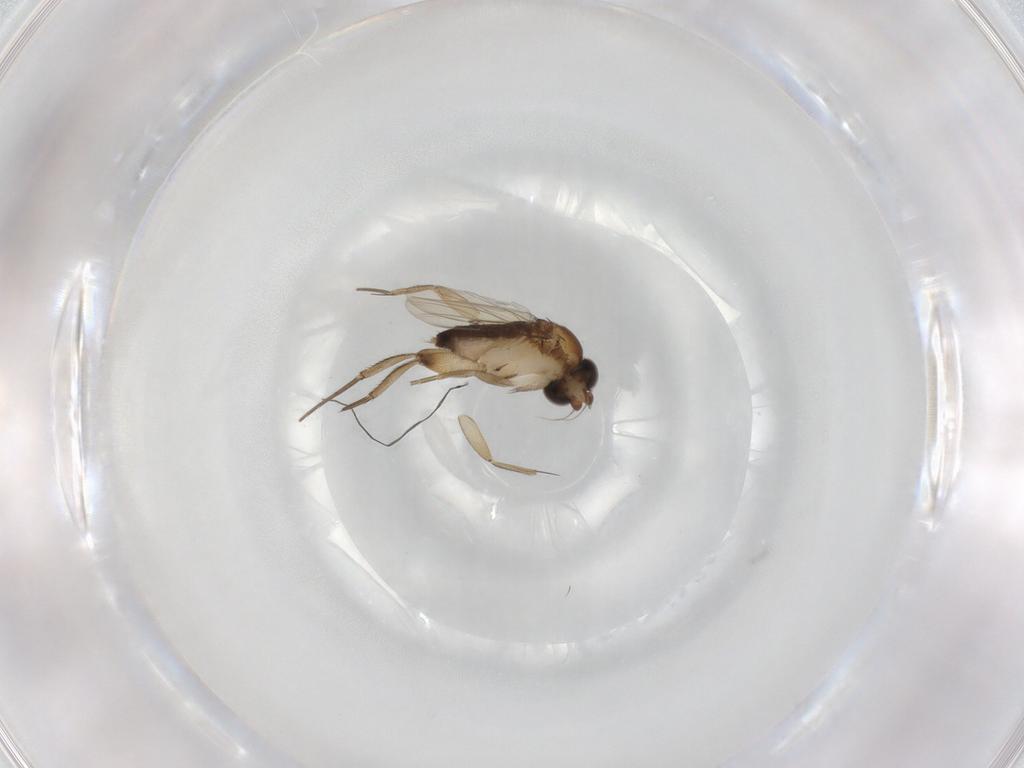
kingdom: Animalia
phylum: Arthropoda
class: Insecta
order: Diptera
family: Phoridae
